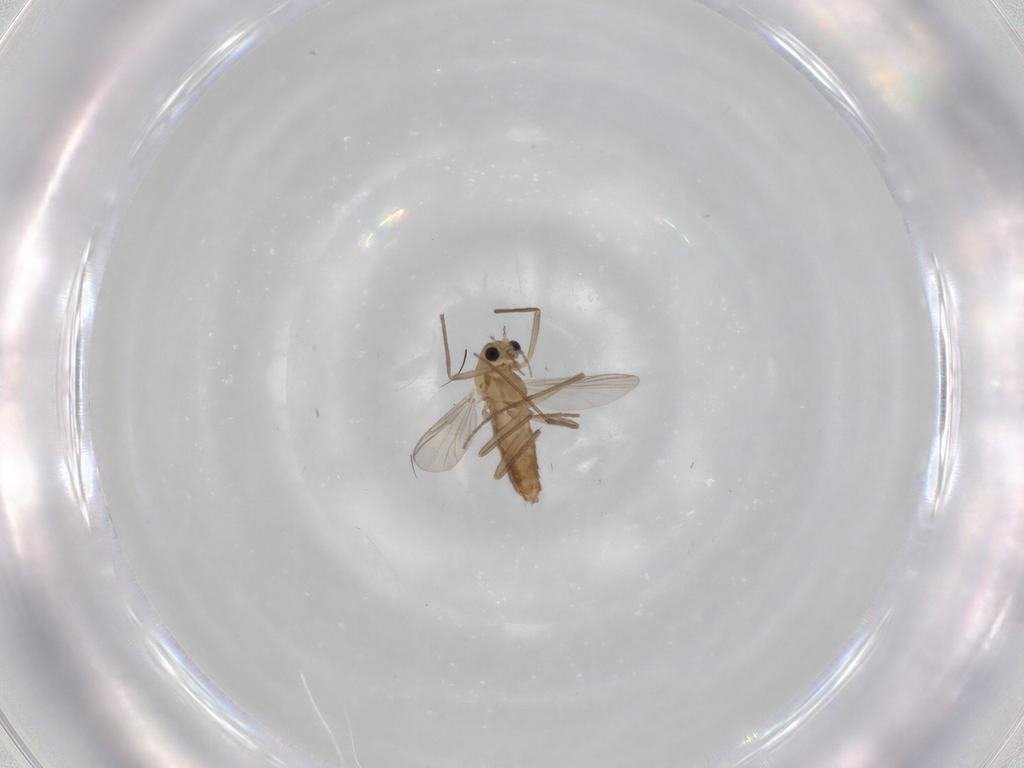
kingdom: Animalia
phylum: Arthropoda
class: Insecta
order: Diptera
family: Chironomidae
